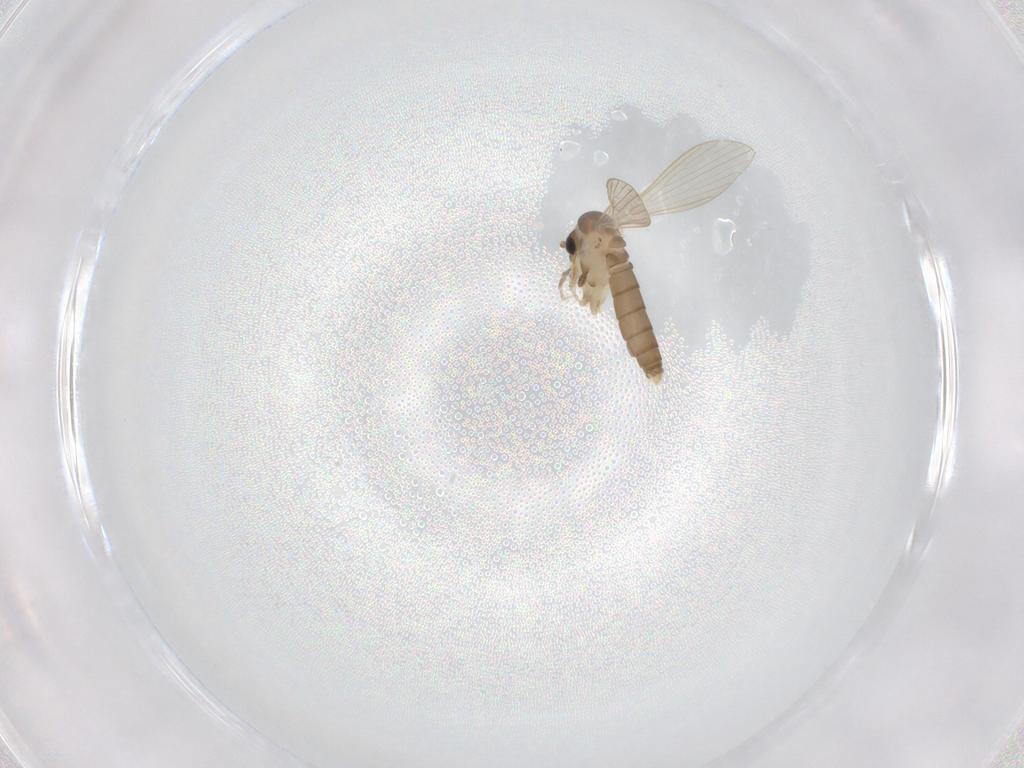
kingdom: Animalia
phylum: Arthropoda
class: Insecta
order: Diptera
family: Psychodidae
